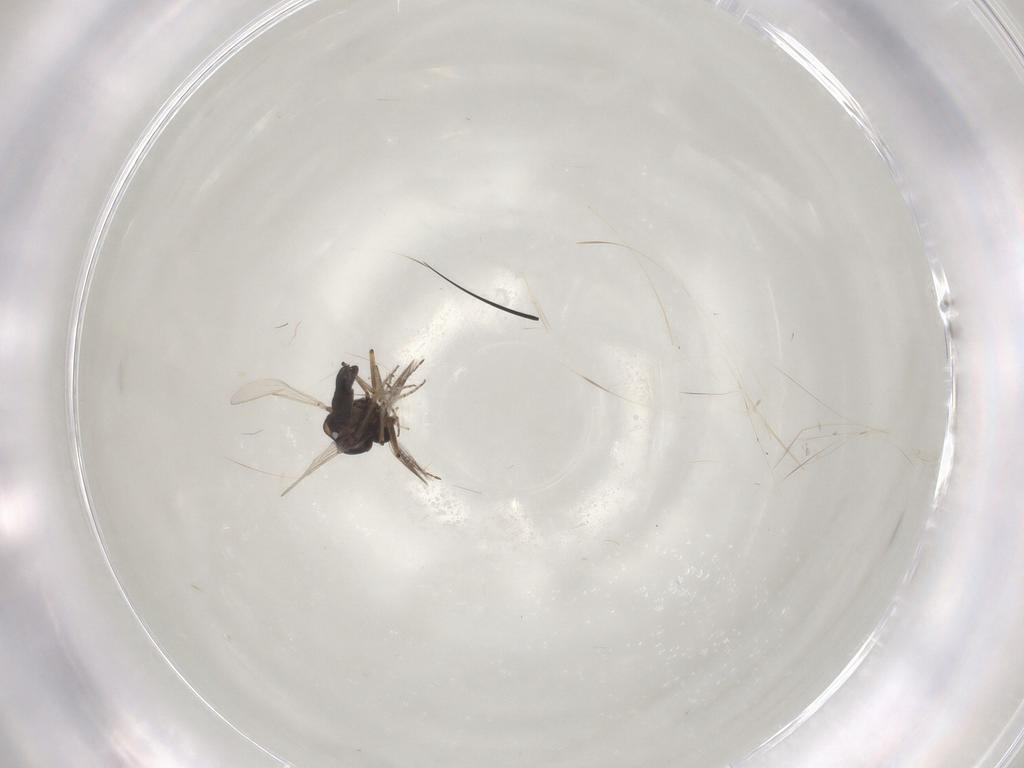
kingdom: Animalia
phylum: Arthropoda
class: Insecta
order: Diptera
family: Ceratopogonidae
